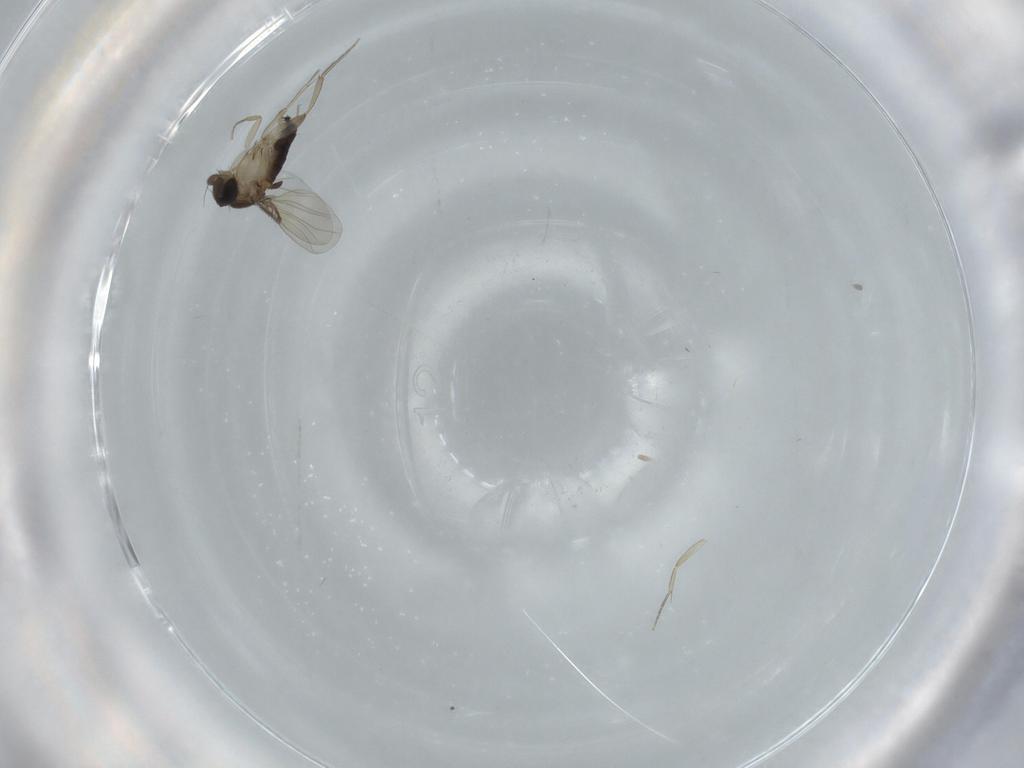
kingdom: Animalia
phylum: Arthropoda
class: Insecta
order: Diptera
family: Phoridae
